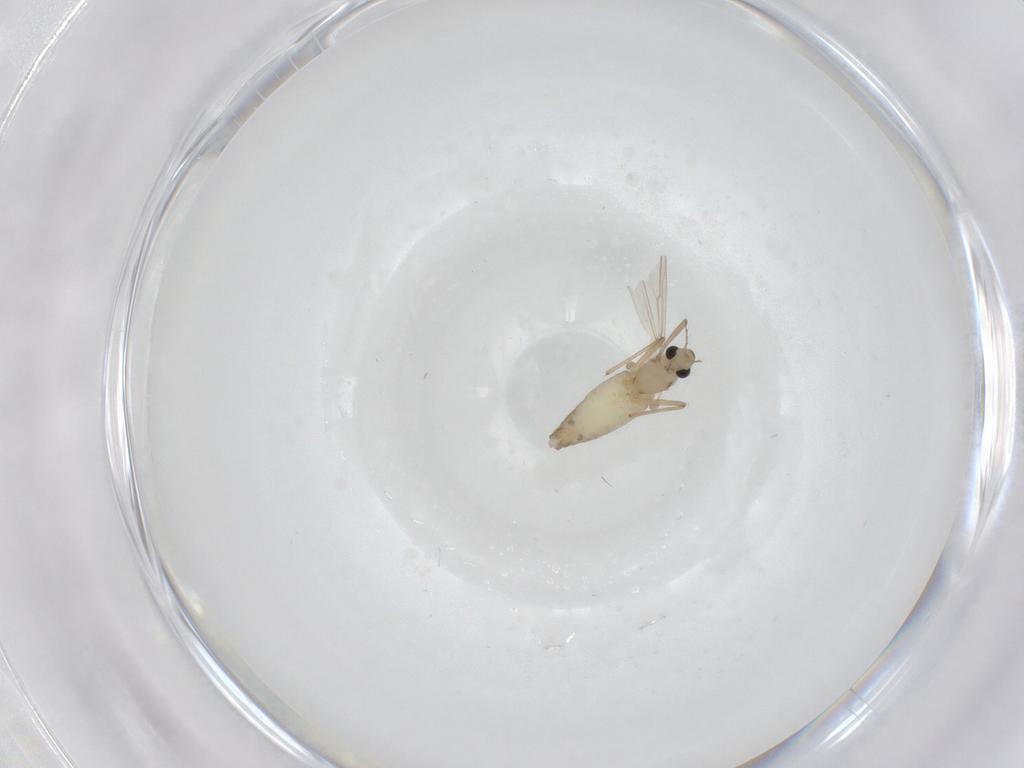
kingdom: Animalia
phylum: Arthropoda
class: Insecta
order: Diptera
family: Chironomidae
